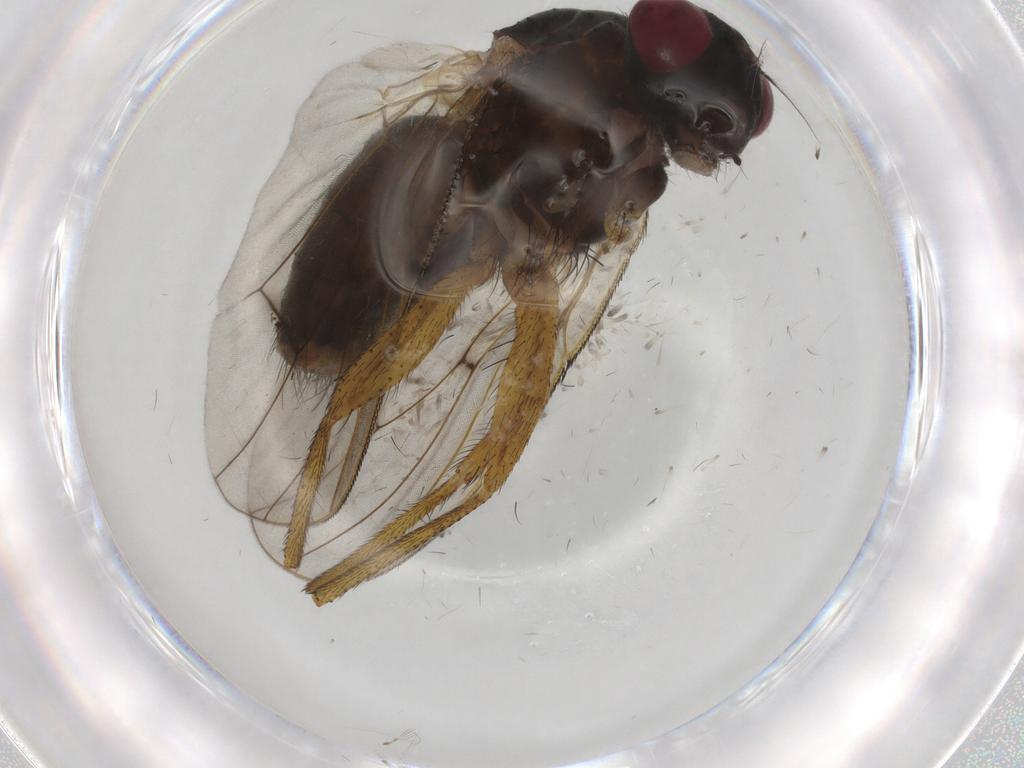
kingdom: Animalia
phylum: Arthropoda
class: Insecta
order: Diptera
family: Muscidae
